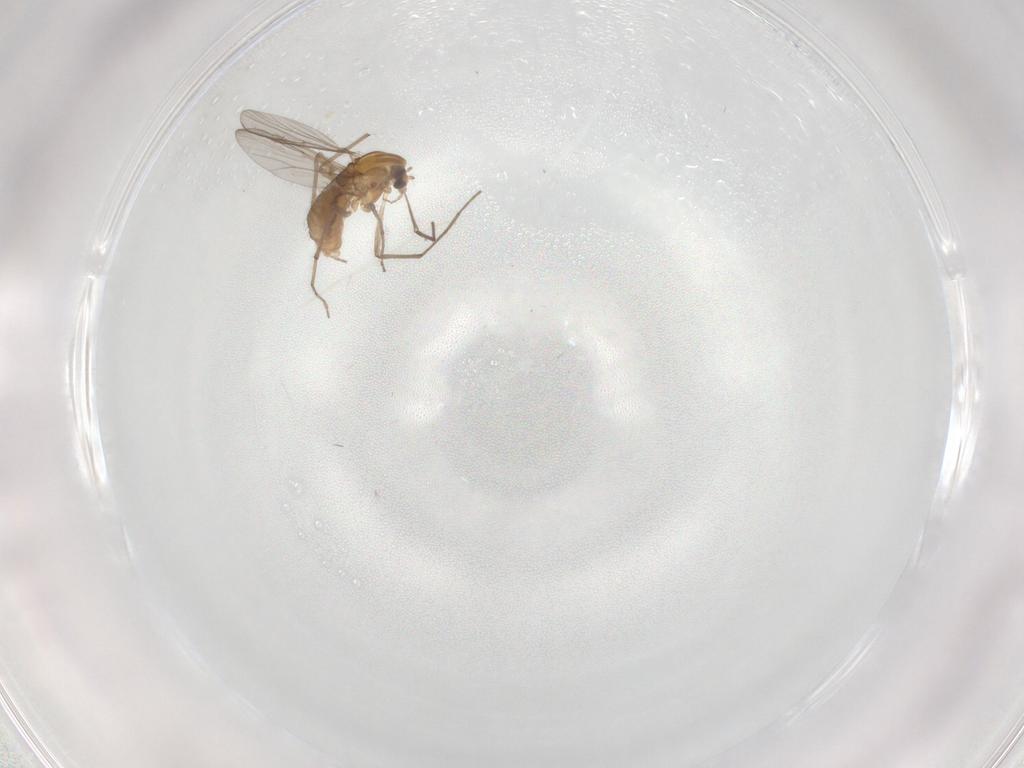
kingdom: Animalia
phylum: Arthropoda
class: Insecta
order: Diptera
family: Chironomidae
